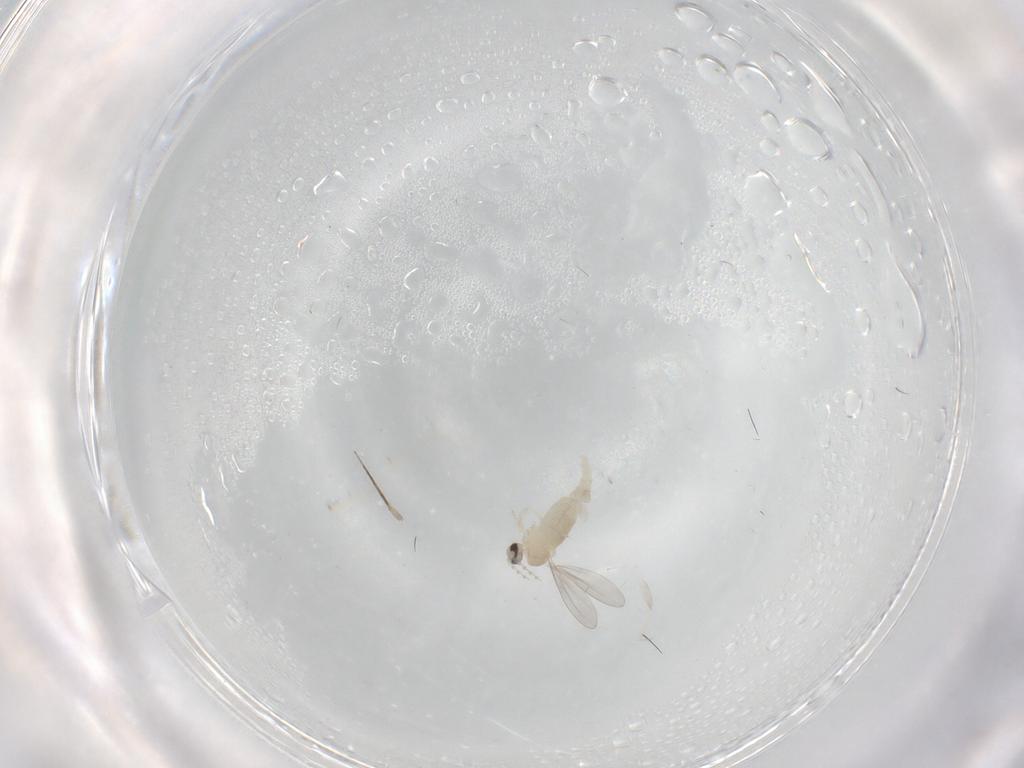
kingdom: Animalia
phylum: Arthropoda
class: Insecta
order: Diptera
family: Cecidomyiidae
